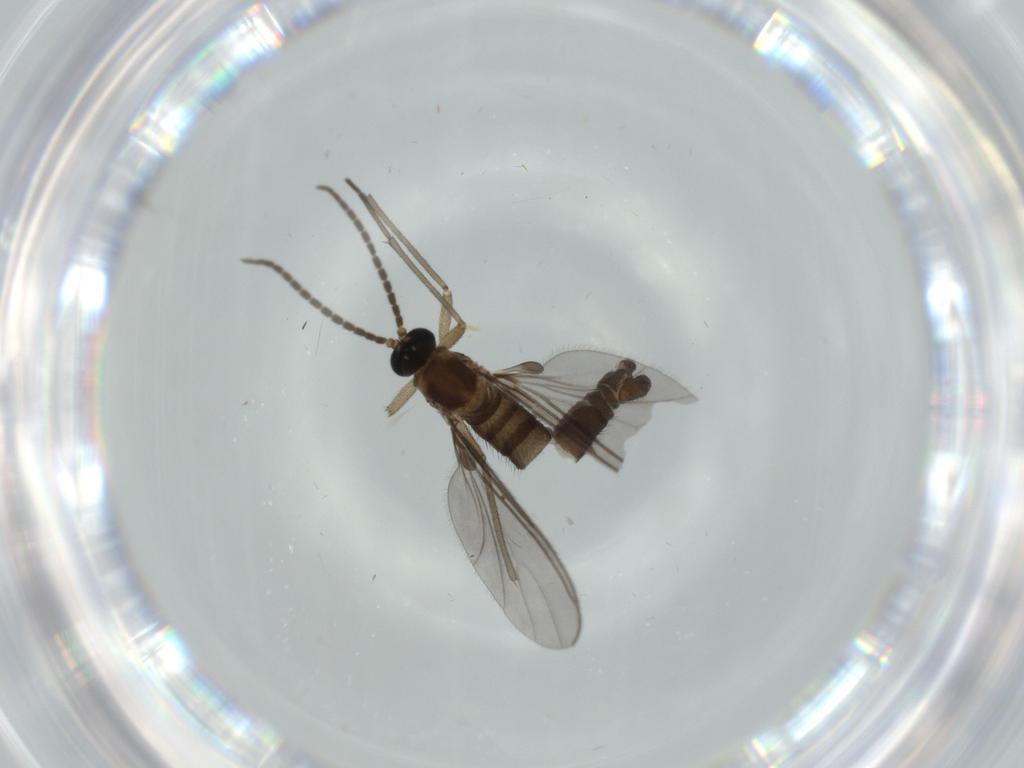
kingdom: Animalia
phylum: Arthropoda
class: Insecta
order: Diptera
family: Sciaridae
